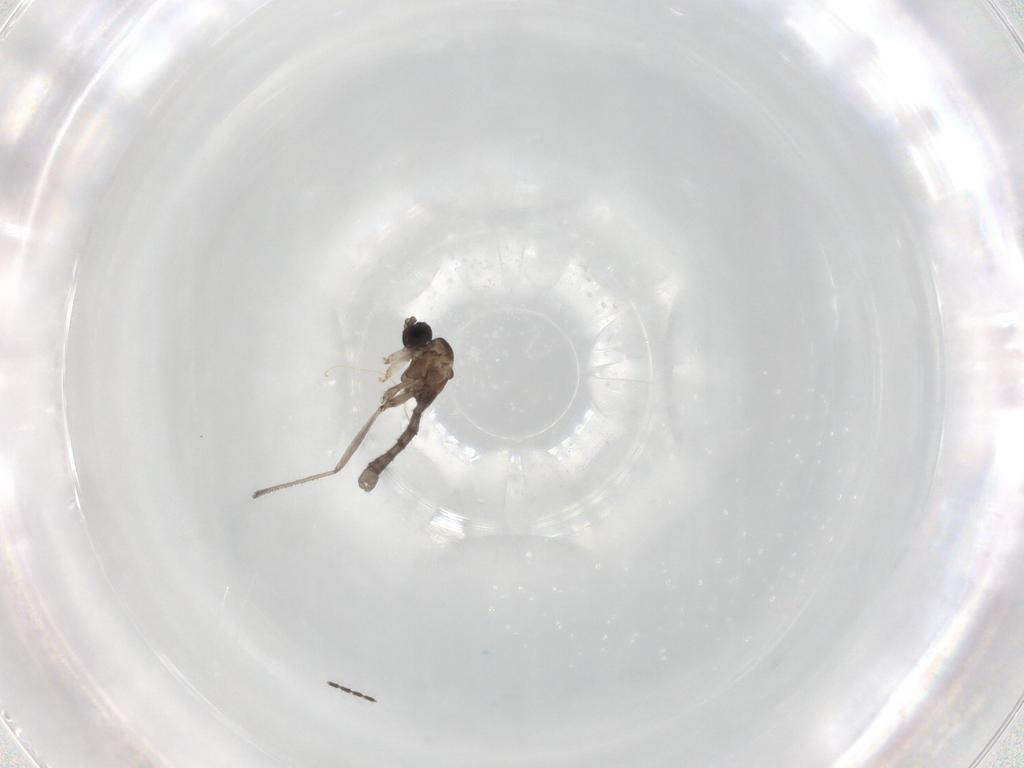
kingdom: Animalia
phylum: Arthropoda
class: Insecta
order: Diptera
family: Sciaridae
